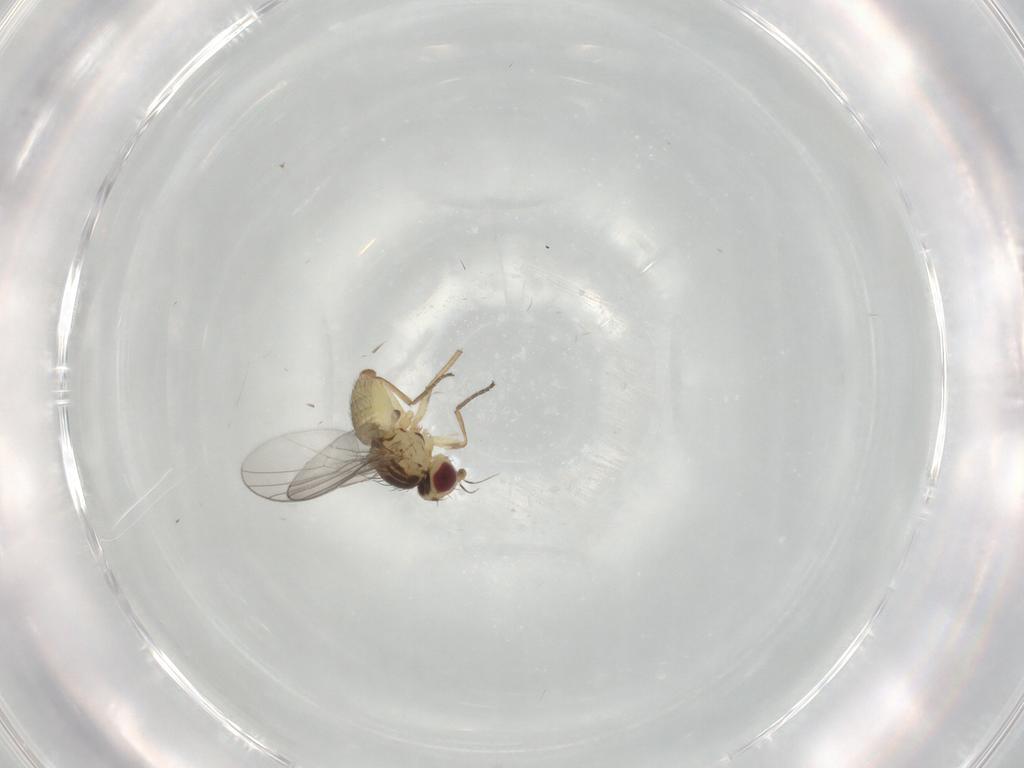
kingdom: Animalia
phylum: Arthropoda
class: Insecta
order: Diptera
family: Agromyzidae
